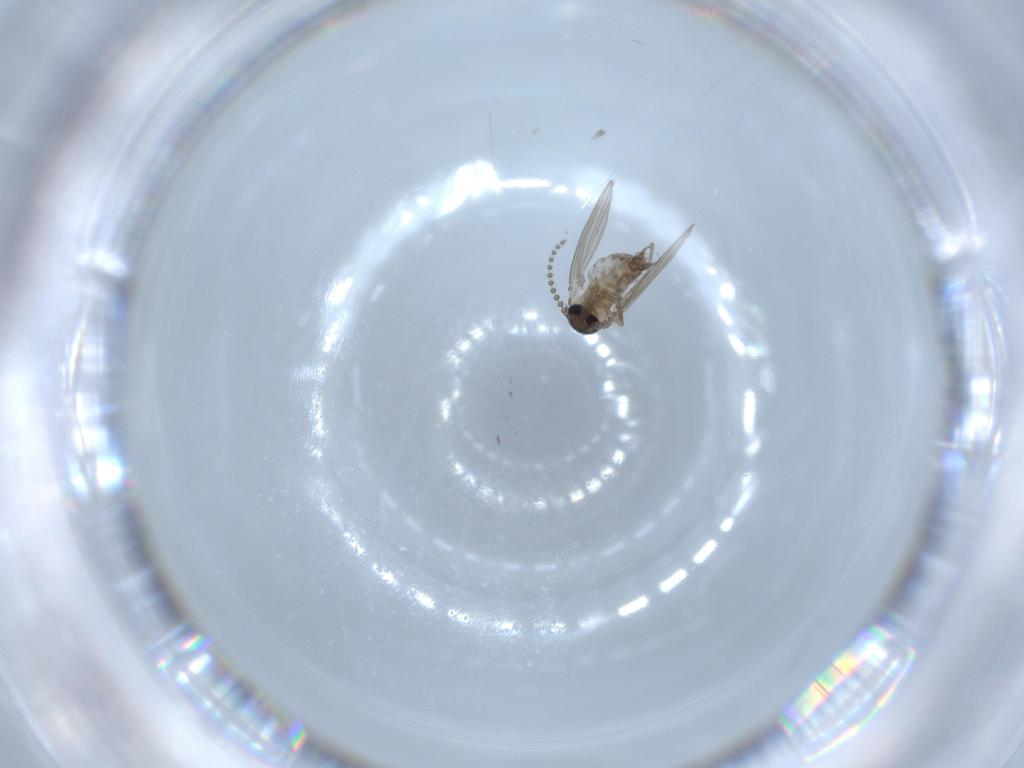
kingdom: Animalia
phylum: Arthropoda
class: Insecta
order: Diptera
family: Psychodidae
